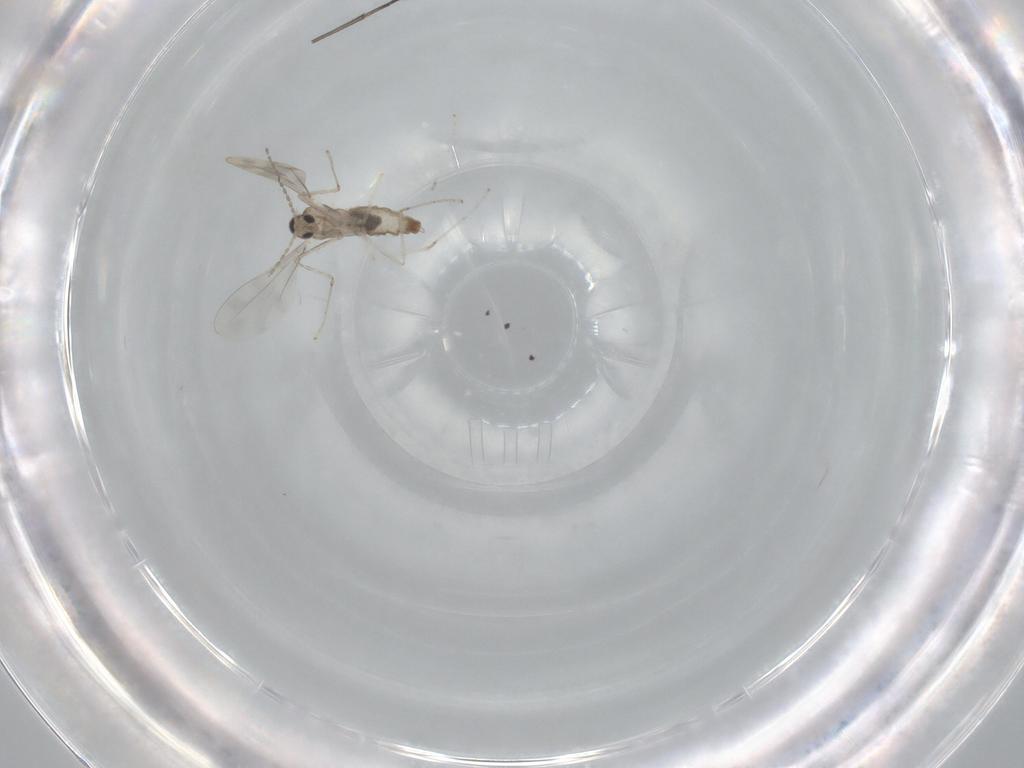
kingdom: Animalia
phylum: Arthropoda
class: Insecta
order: Diptera
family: Cecidomyiidae
